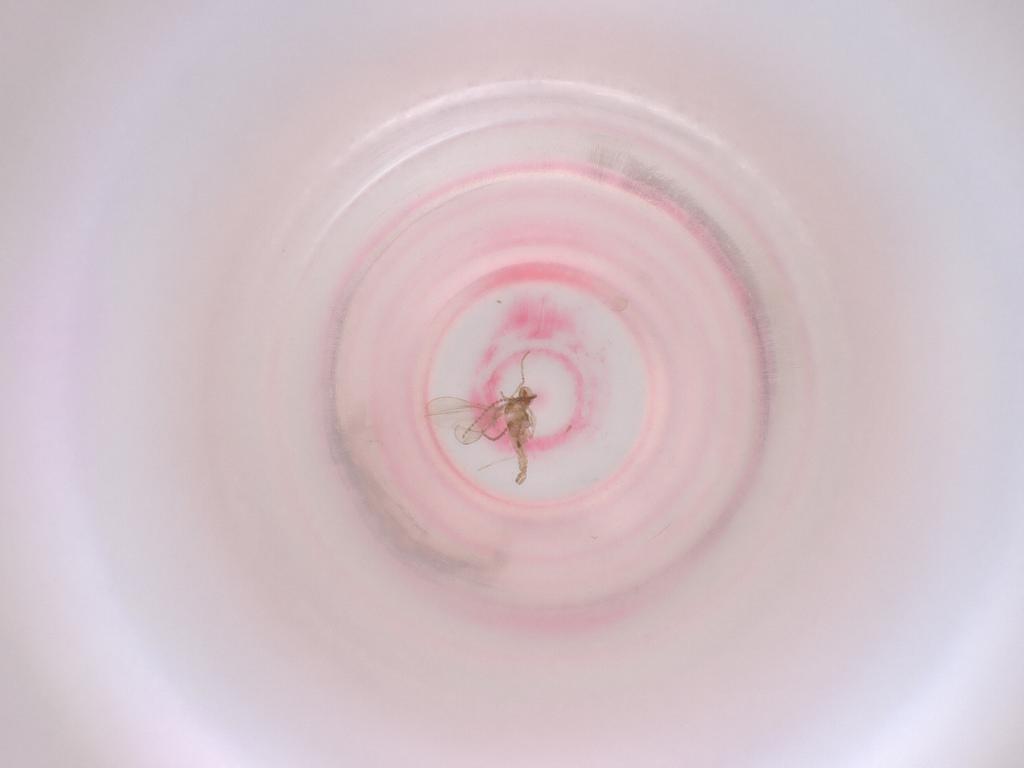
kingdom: Animalia
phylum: Arthropoda
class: Insecta
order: Diptera
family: Cecidomyiidae
